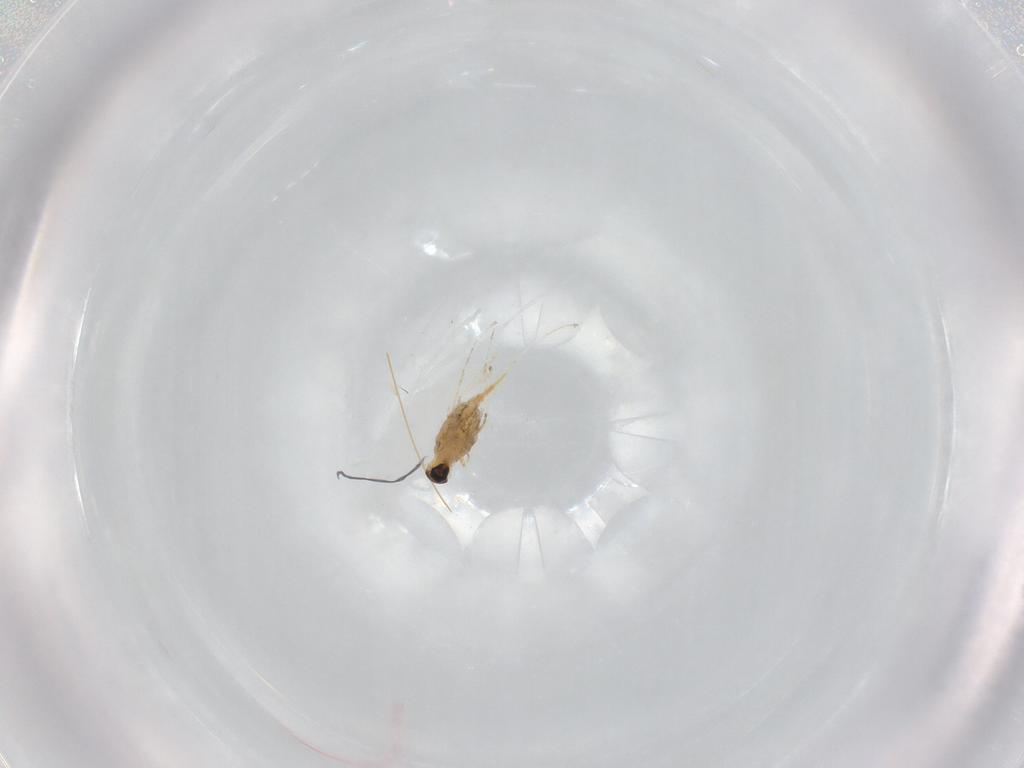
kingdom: Animalia
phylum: Arthropoda
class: Insecta
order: Diptera
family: Cecidomyiidae
